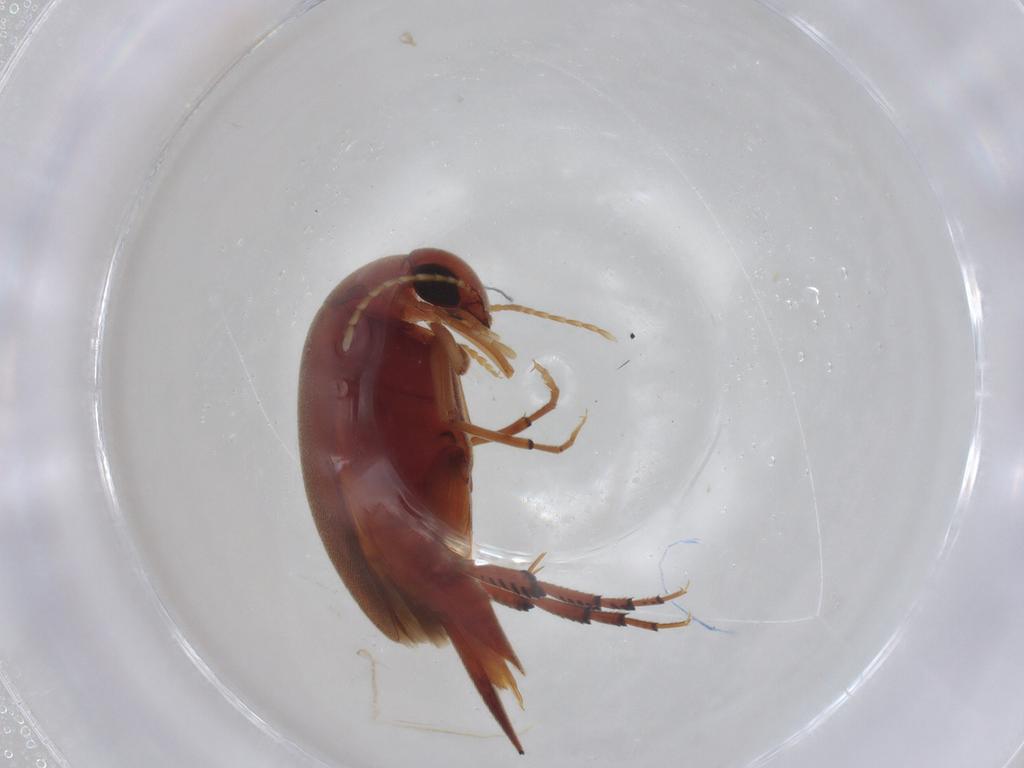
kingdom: Animalia
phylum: Arthropoda
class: Insecta
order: Coleoptera
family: Mordellidae
